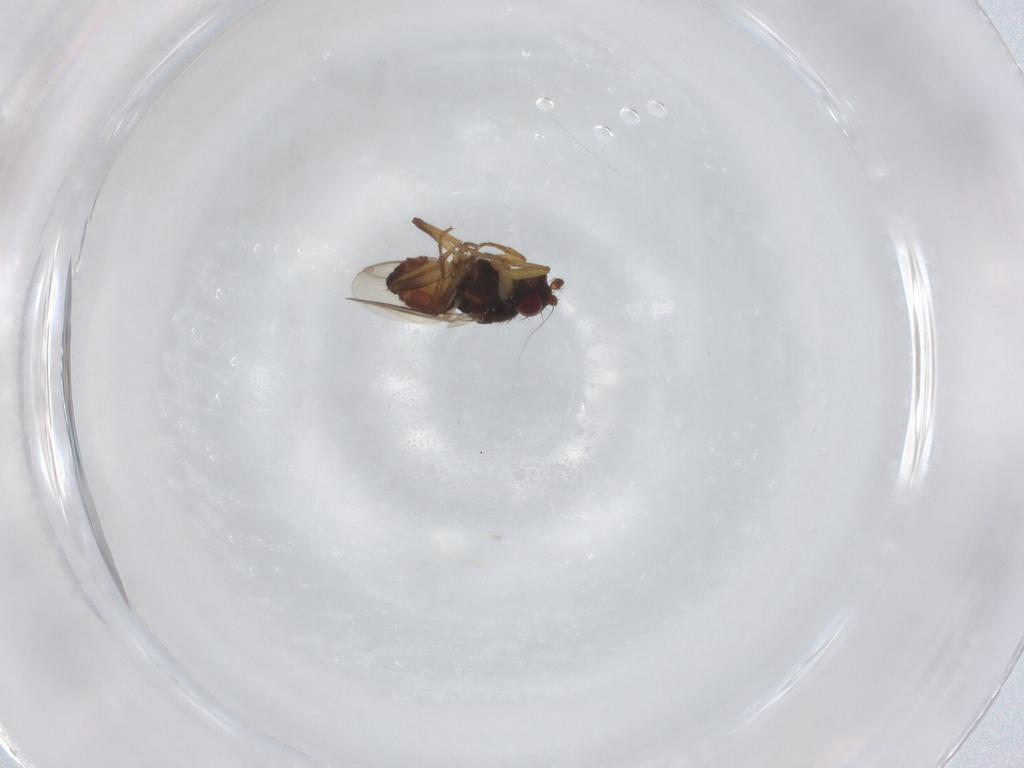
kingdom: Animalia
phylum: Arthropoda
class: Insecta
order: Diptera
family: Sphaeroceridae
